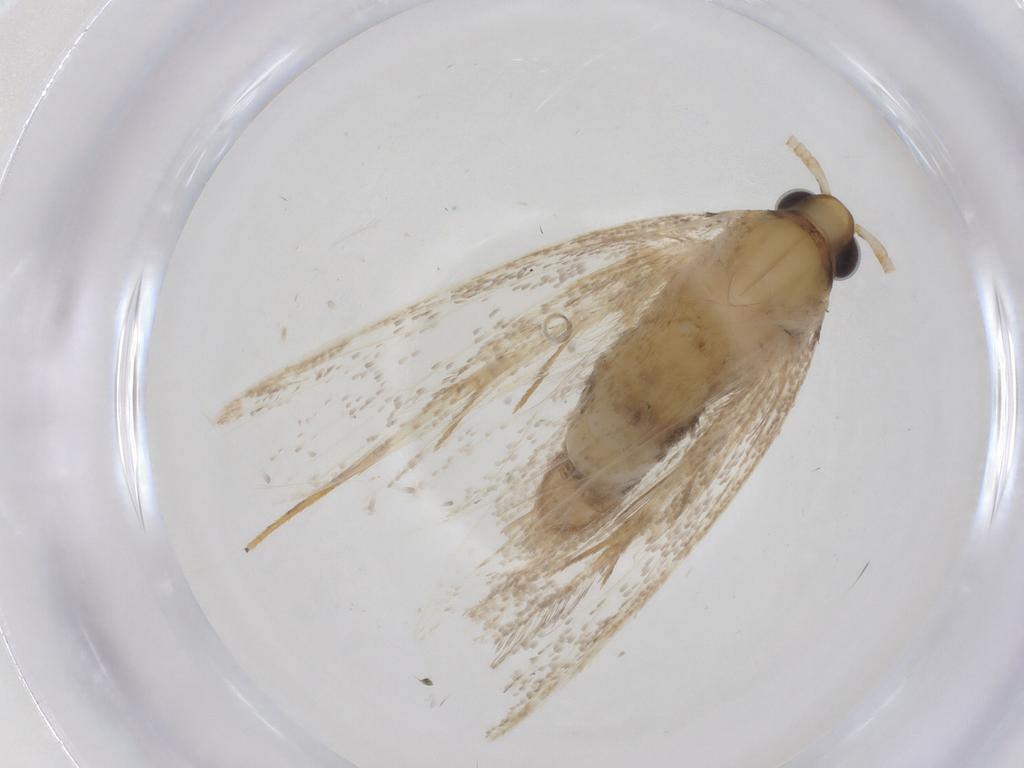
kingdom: Animalia
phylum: Arthropoda
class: Insecta
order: Lepidoptera
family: Lecithoceridae
